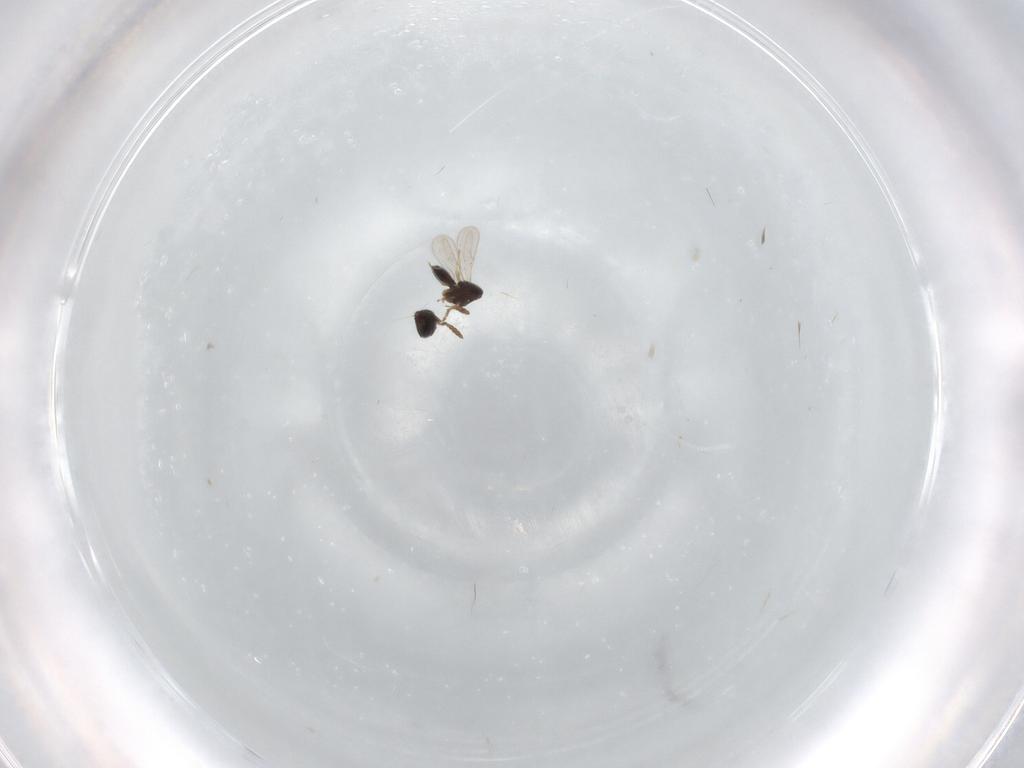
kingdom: Animalia
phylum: Arthropoda
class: Insecta
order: Hymenoptera
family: Scelionidae
